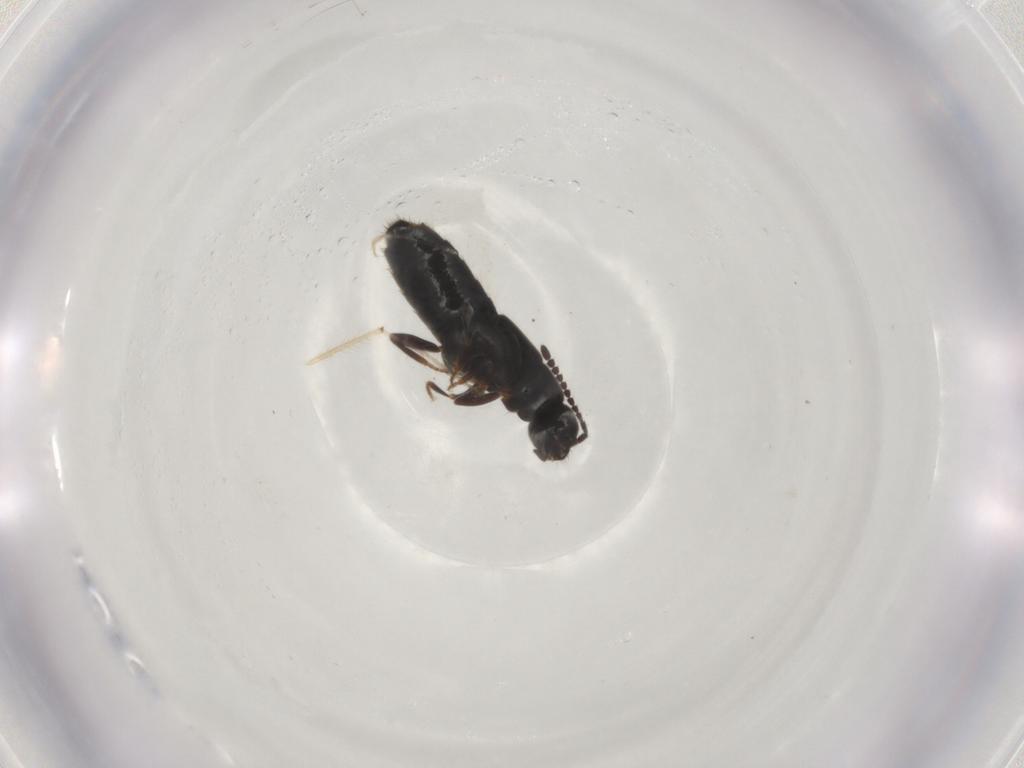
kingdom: Animalia
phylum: Arthropoda
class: Insecta
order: Coleoptera
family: Staphylinidae
